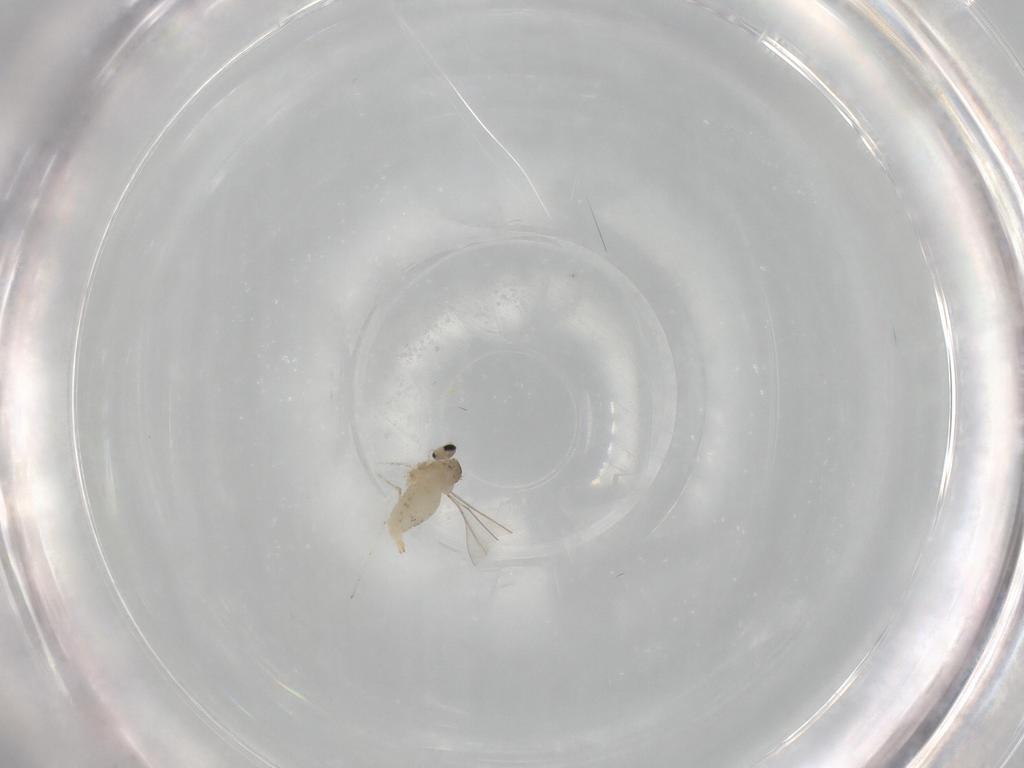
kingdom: Animalia
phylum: Arthropoda
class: Insecta
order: Diptera
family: Cecidomyiidae
